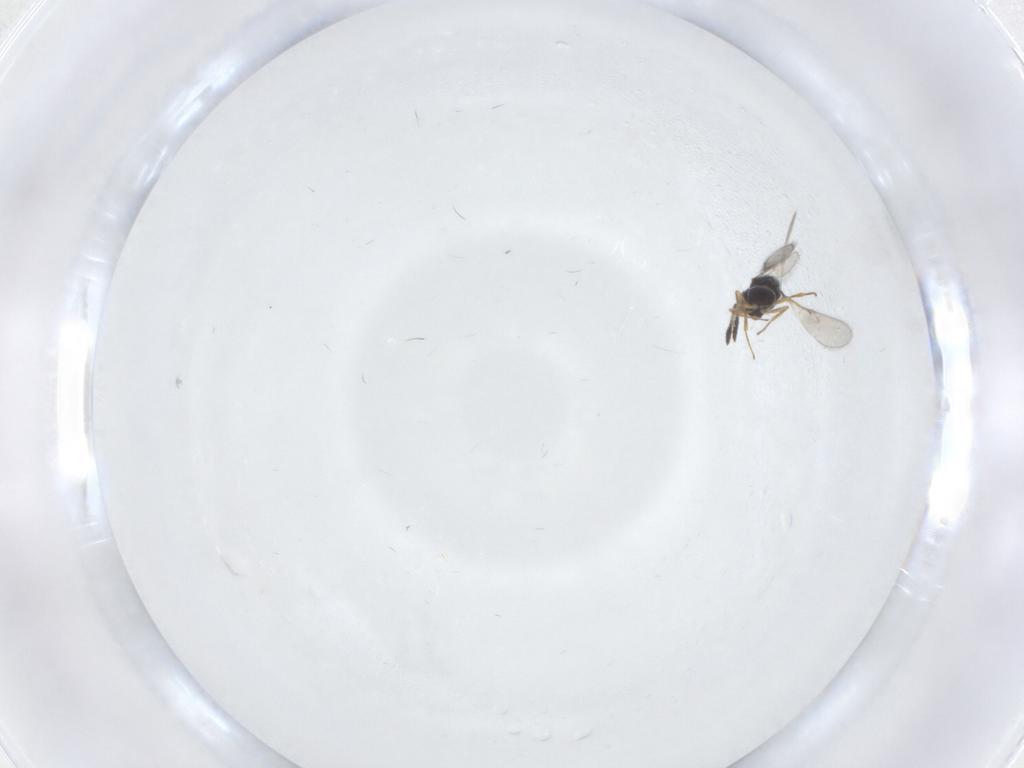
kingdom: Animalia
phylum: Arthropoda
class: Insecta
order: Hymenoptera
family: Scelionidae
